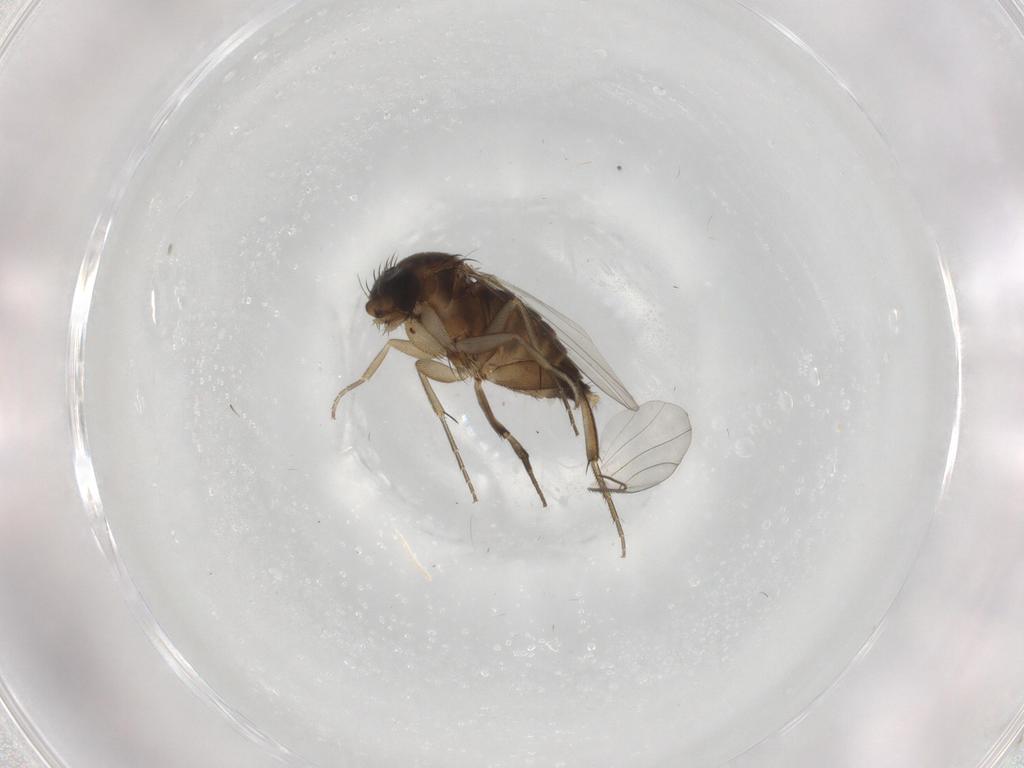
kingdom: Animalia
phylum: Arthropoda
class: Insecta
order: Diptera
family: Phoridae
